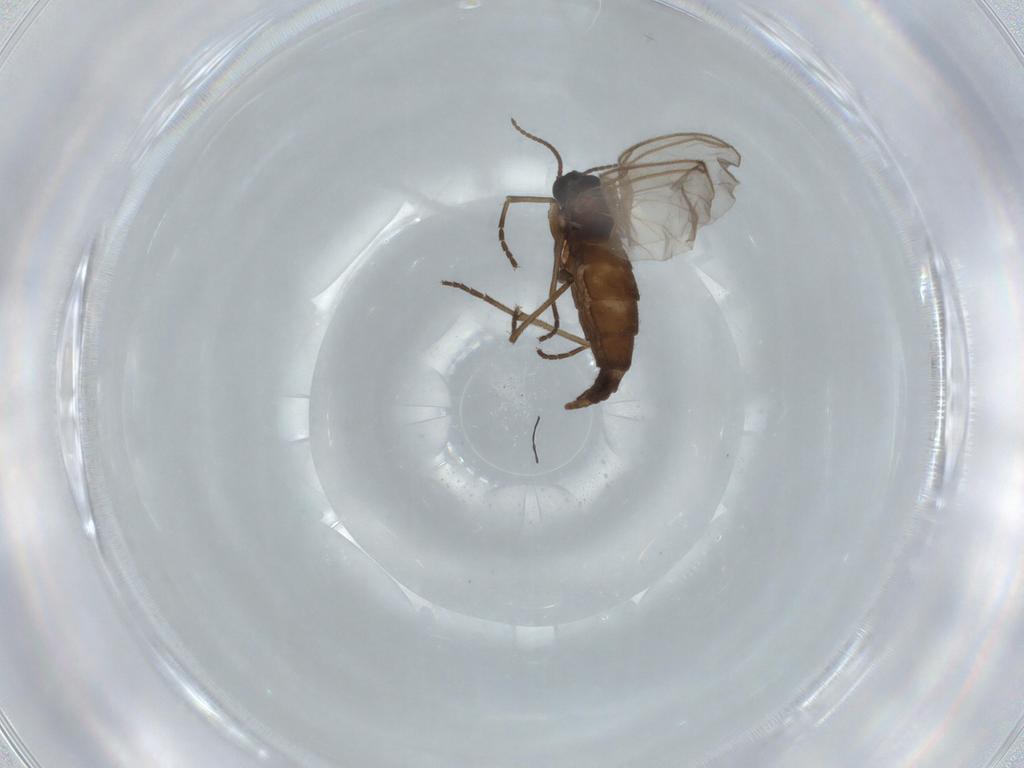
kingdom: Animalia
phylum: Arthropoda
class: Insecta
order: Diptera
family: Sciaridae
